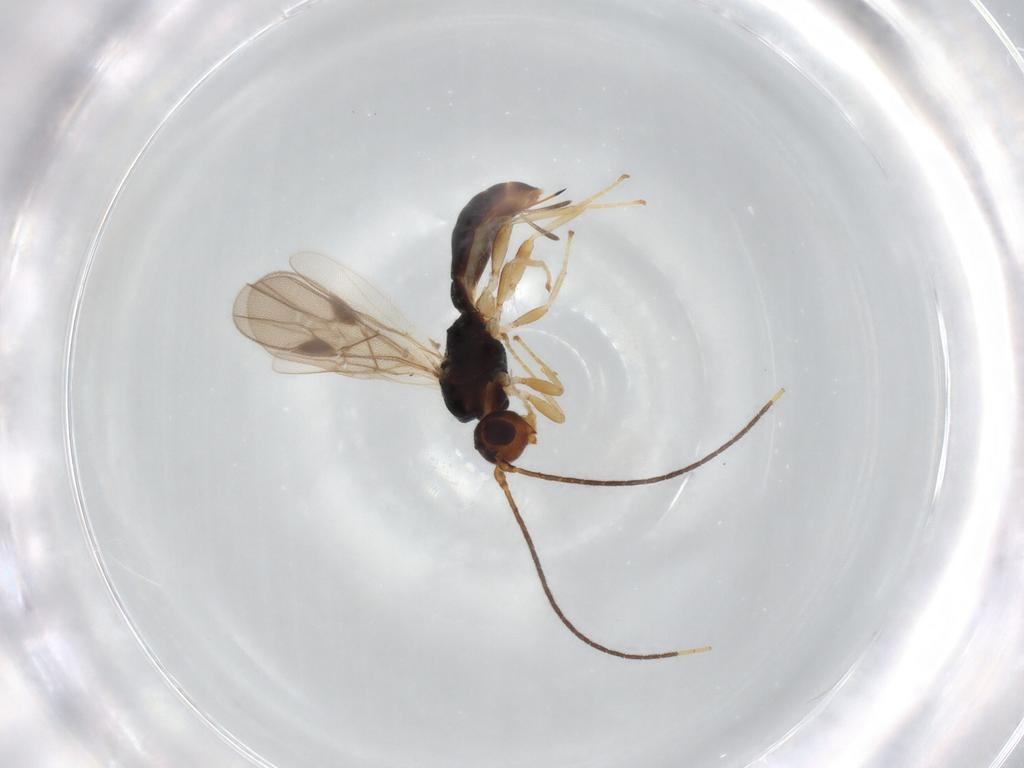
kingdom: Animalia
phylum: Arthropoda
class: Insecta
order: Hymenoptera
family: Braconidae
